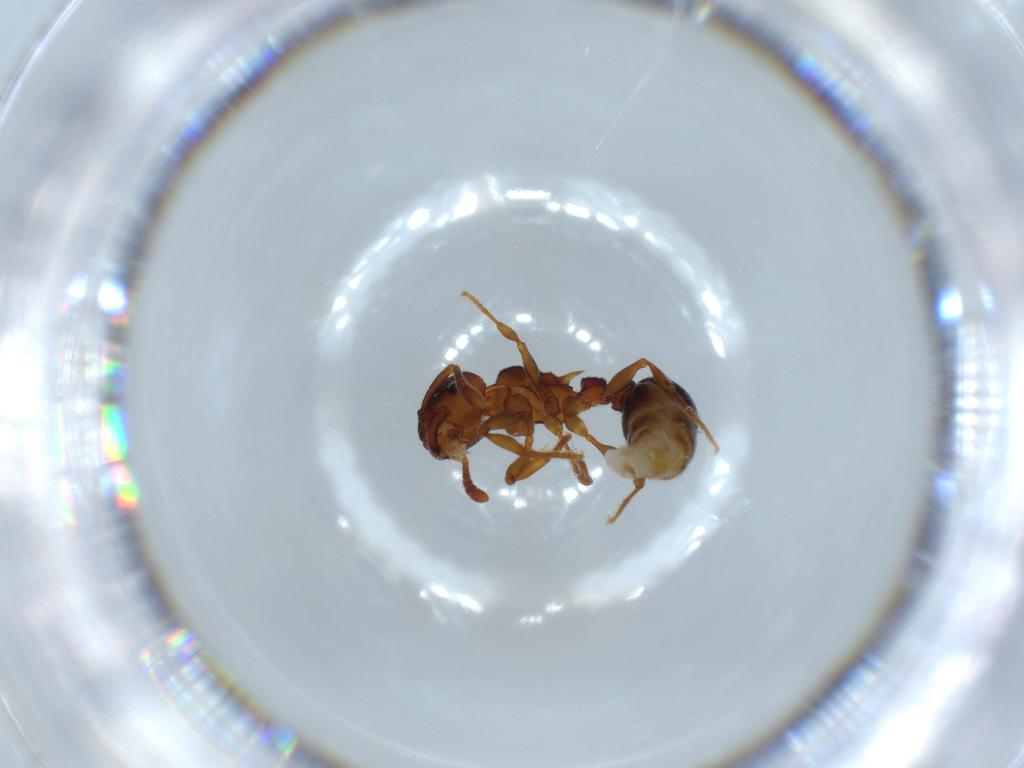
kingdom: Animalia
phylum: Arthropoda
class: Insecta
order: Hymenoptera
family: Formicidae
